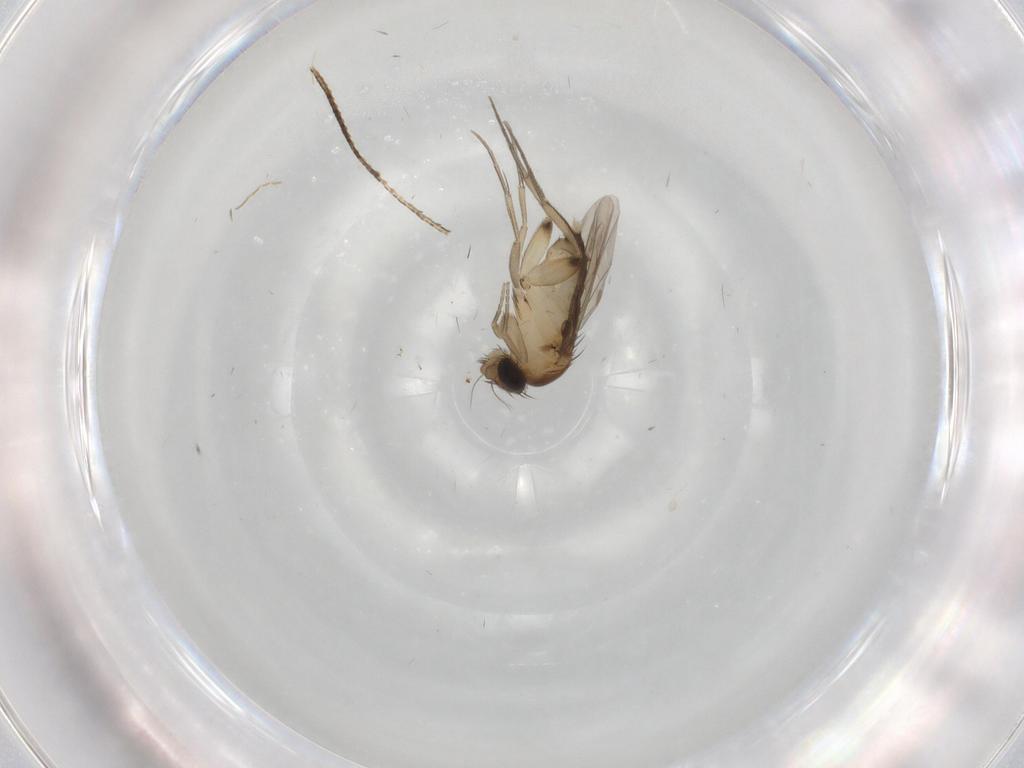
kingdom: Animalia
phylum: Arthropoda
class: Insecta
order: Diptera
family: Phoridae
